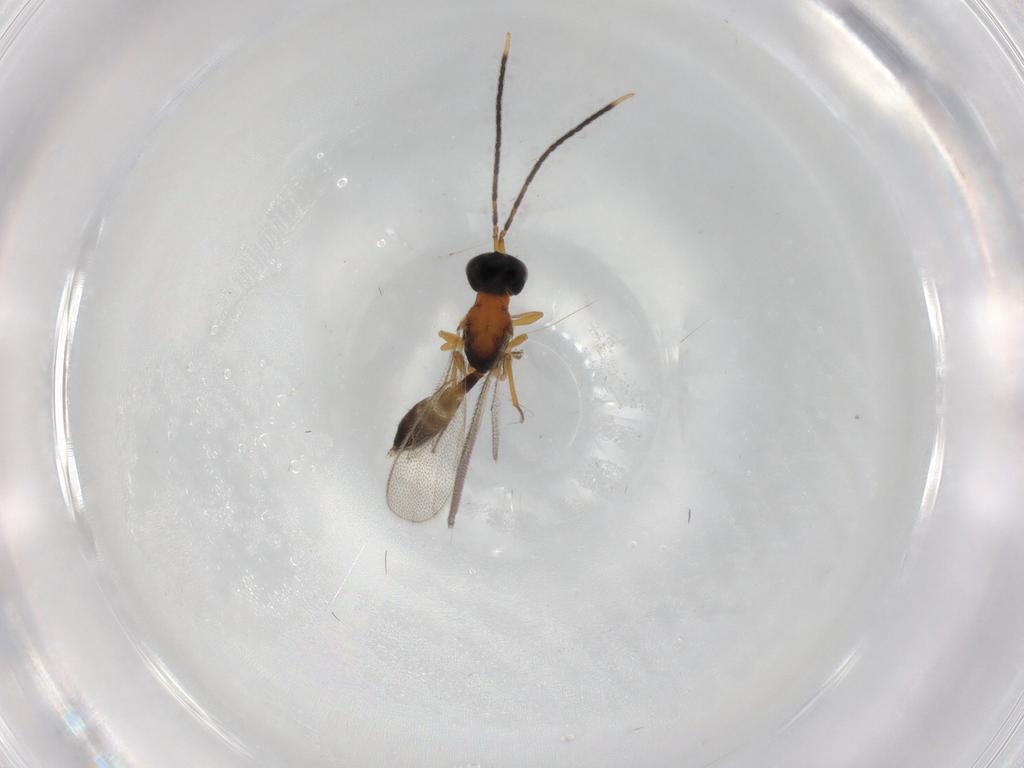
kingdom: Animalia
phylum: Arthropoda
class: Insecta
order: Hymenoptera
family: Pteromalidae
